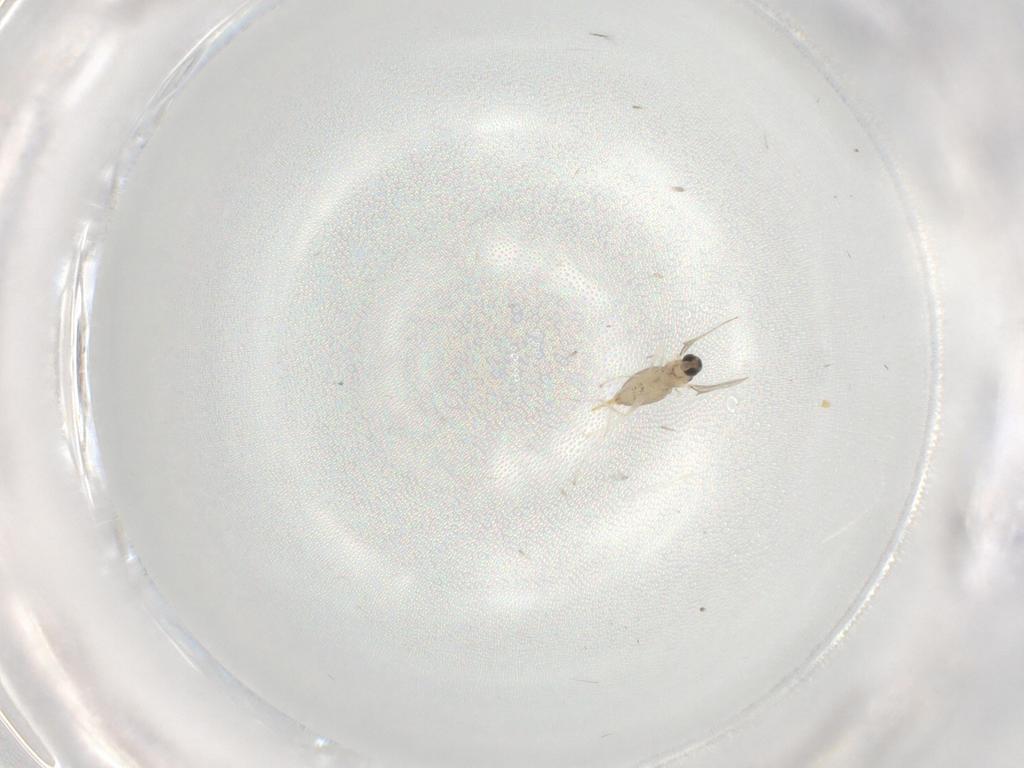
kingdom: Animalia
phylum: Arthropoda
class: Insecta
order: Diptera
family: Cecidomyiidae
